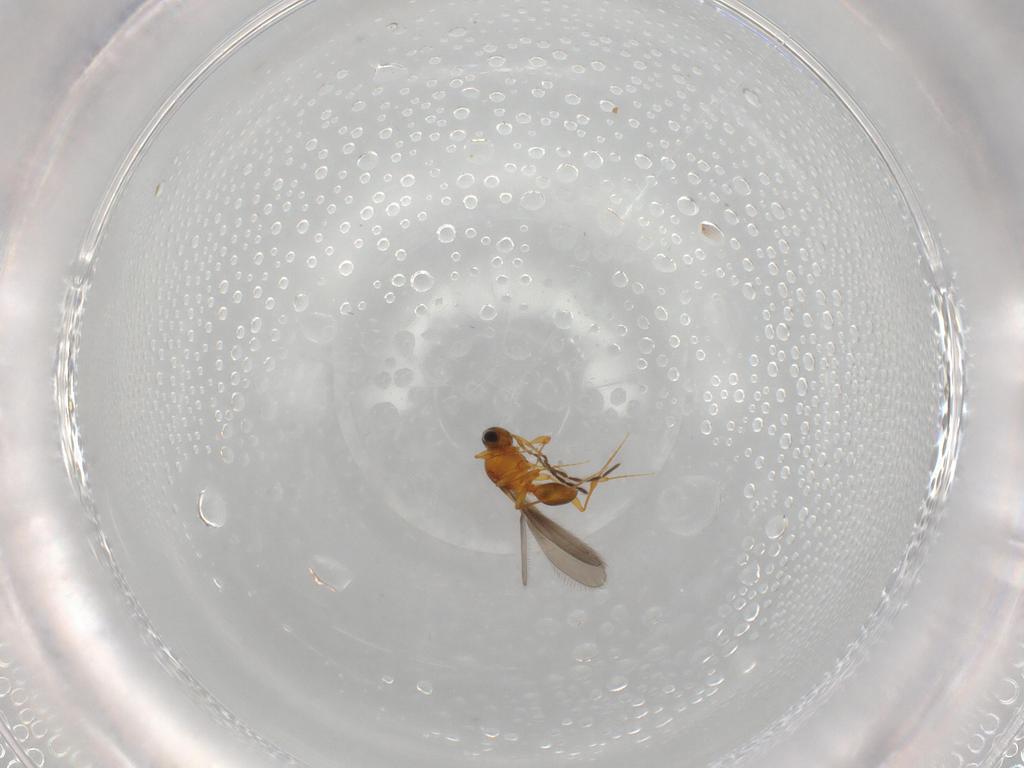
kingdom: Animalia
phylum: Arthropoda
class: Insecta
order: Hymenoptera
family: Platygastridae
